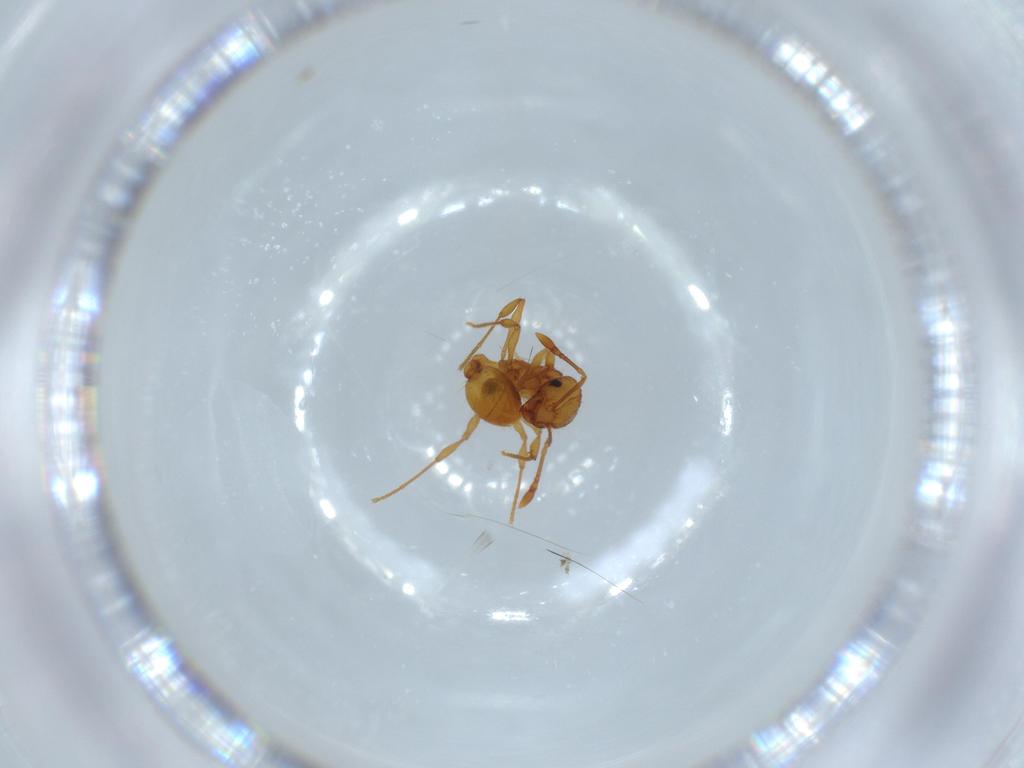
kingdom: Animalia
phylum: Arthropoda
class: Insecta
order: Hymenoptera
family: Formicidae
